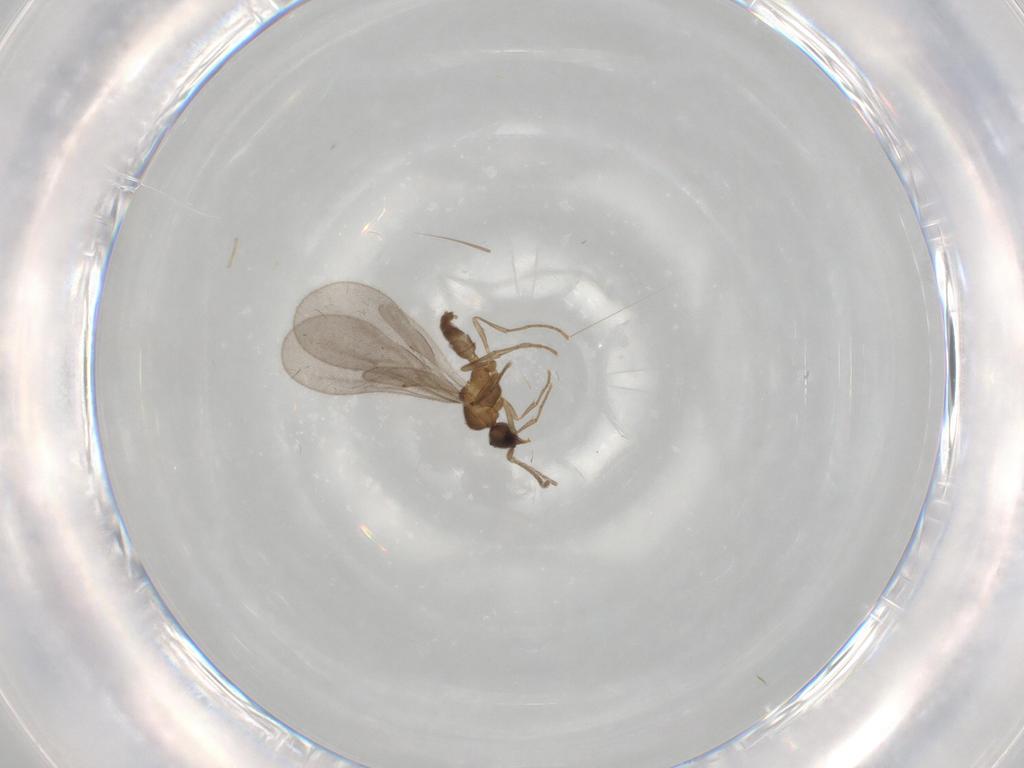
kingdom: Animalia
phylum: Arthropoda
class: Insecta
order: Hymenoptera
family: Formicidae
